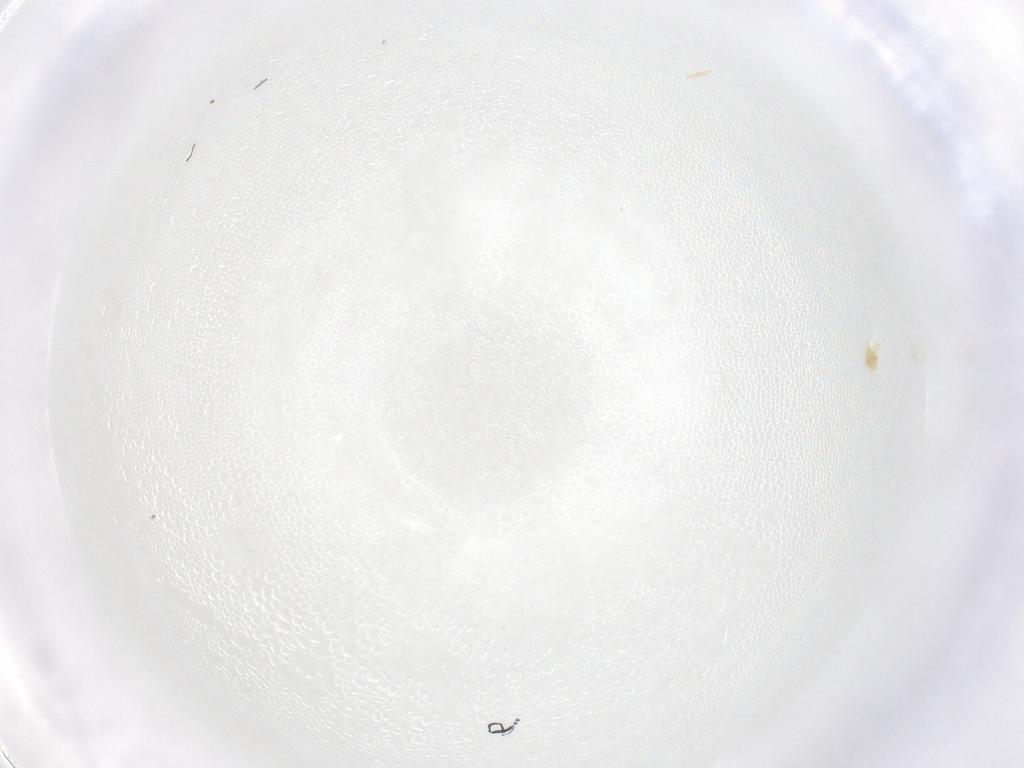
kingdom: Animalia
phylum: Arthropoda
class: Insecta
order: Diptera
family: Chironomidae
